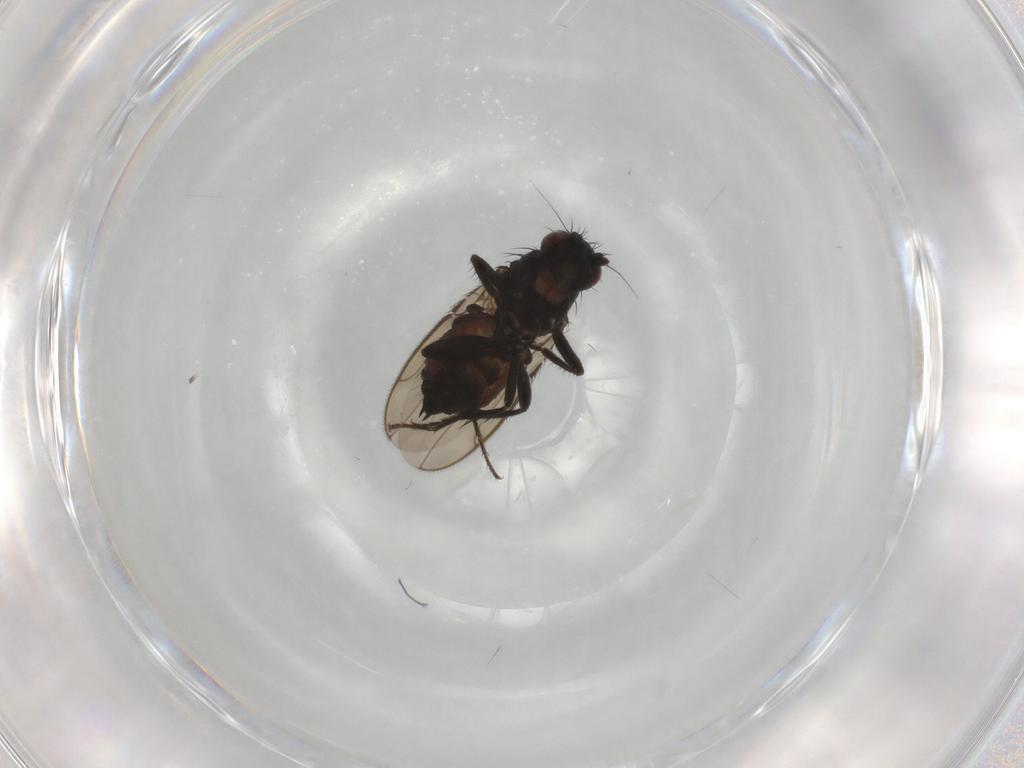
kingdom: Animalia
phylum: Arthropoda
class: Insecta
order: Diptera
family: Sphaeroceridae
